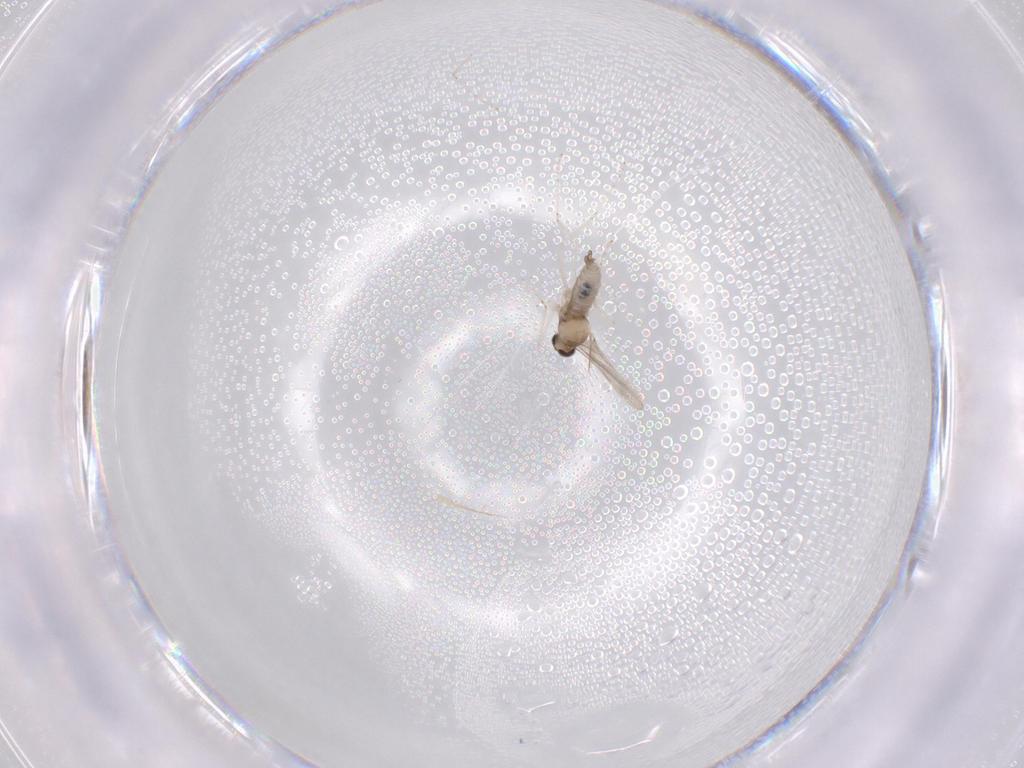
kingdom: Animalia
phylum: Arthropoda
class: Insecta
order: Diptera
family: Cecidomyiidae
